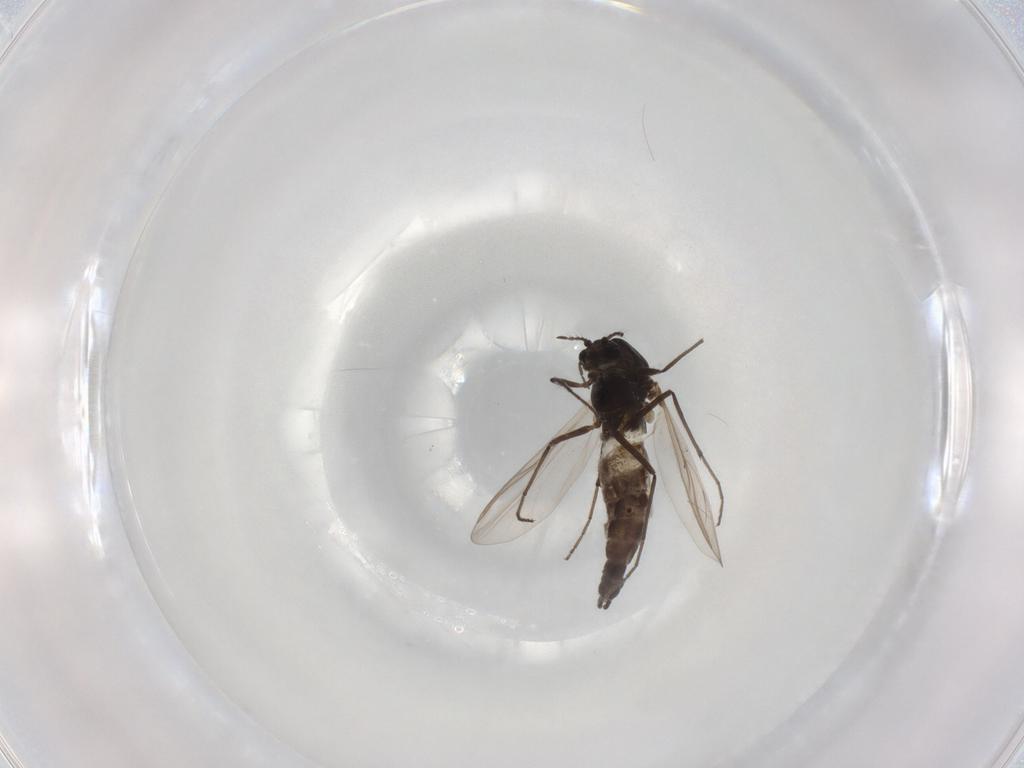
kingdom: Animalia
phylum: Arthropoda
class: Insecta
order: Diptera
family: Chironomidae
